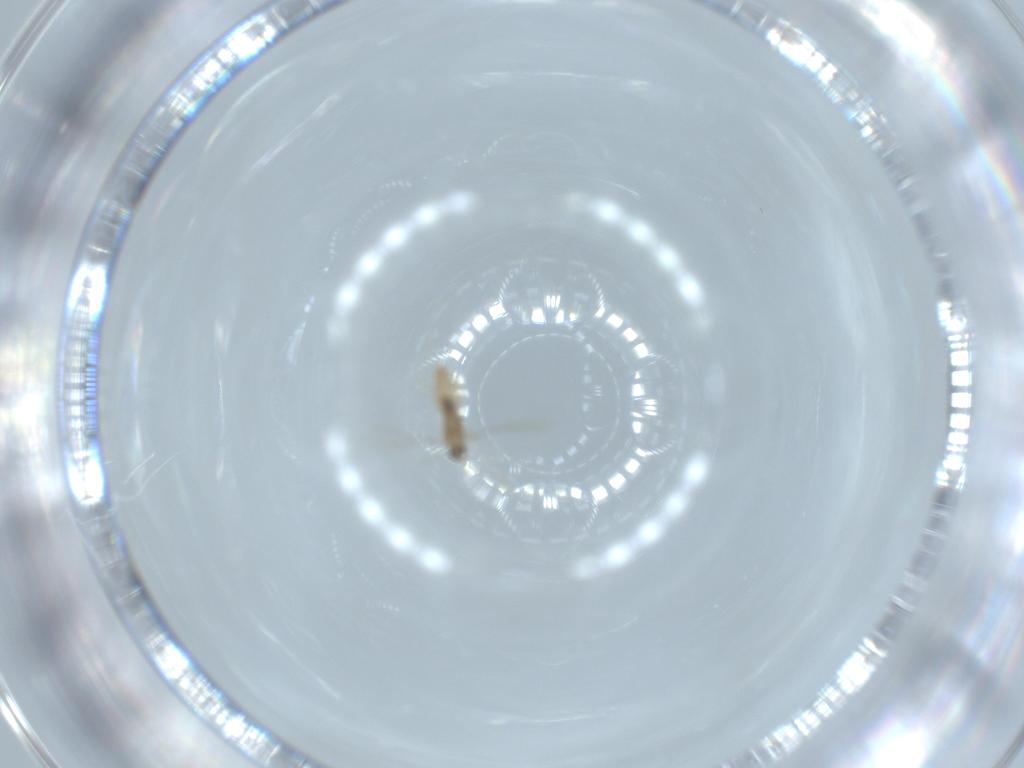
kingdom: Animalia
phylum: Arthropoda
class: Insecta
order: Diptera
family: Cecidomyiidae
